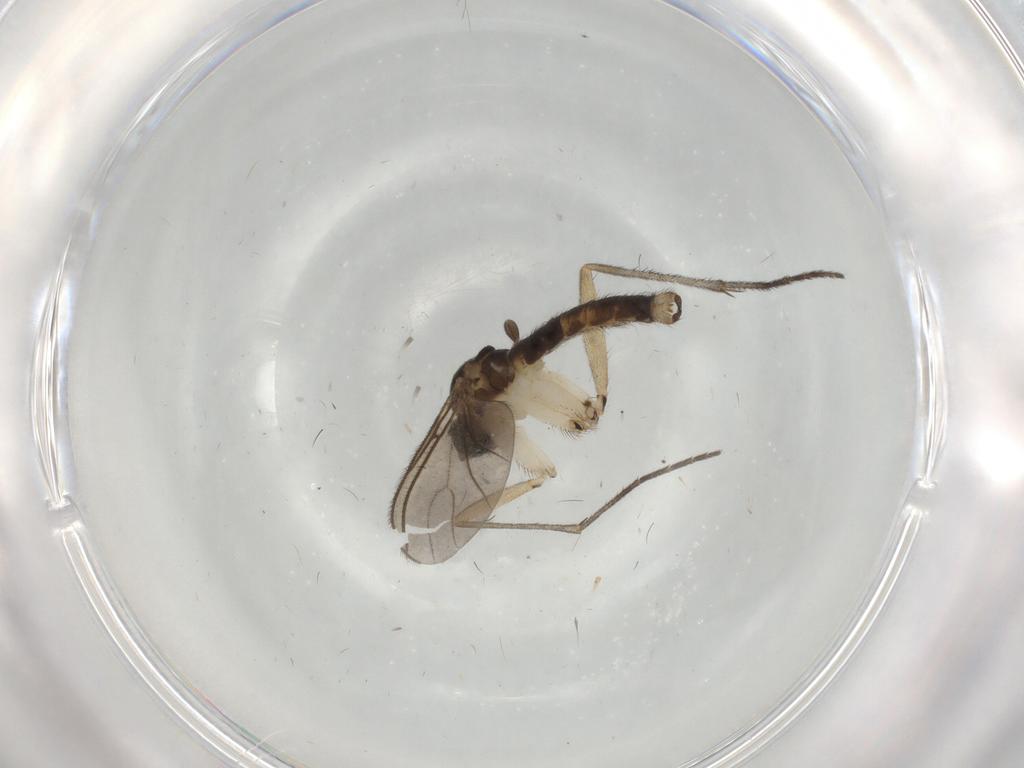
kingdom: Animalia
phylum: Arthropoda
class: Insecta
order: Diptera
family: Sciaridae
